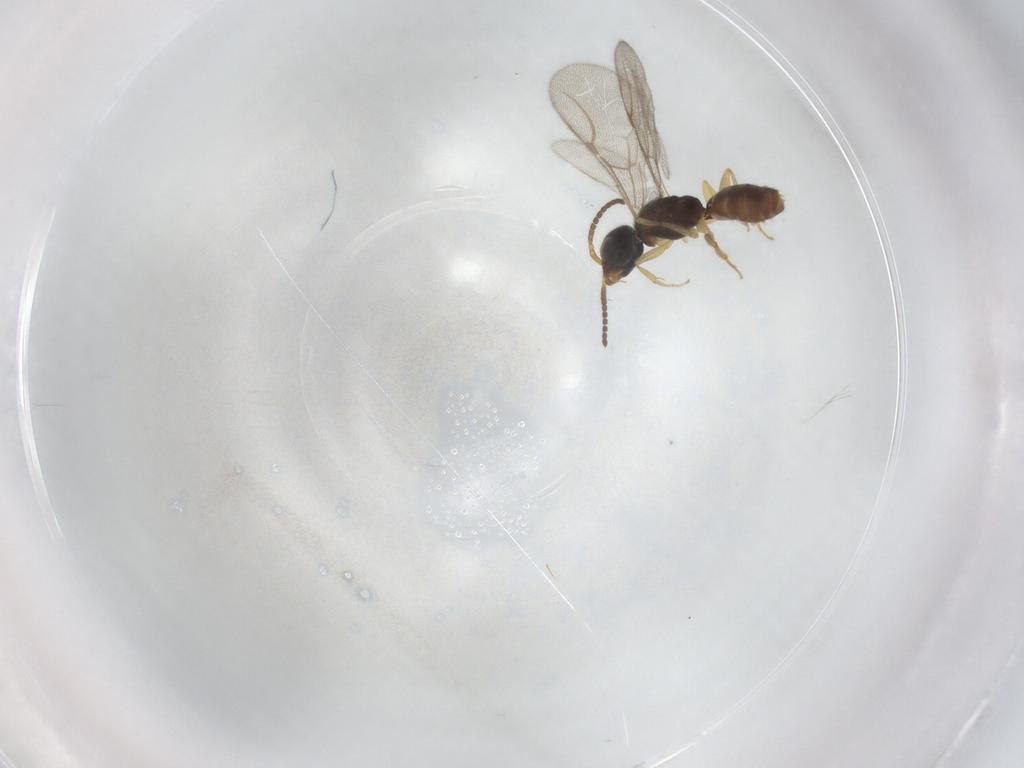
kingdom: Animalia
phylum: Arthropoda
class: Insecta
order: Hymenoptera
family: Bethylidae
